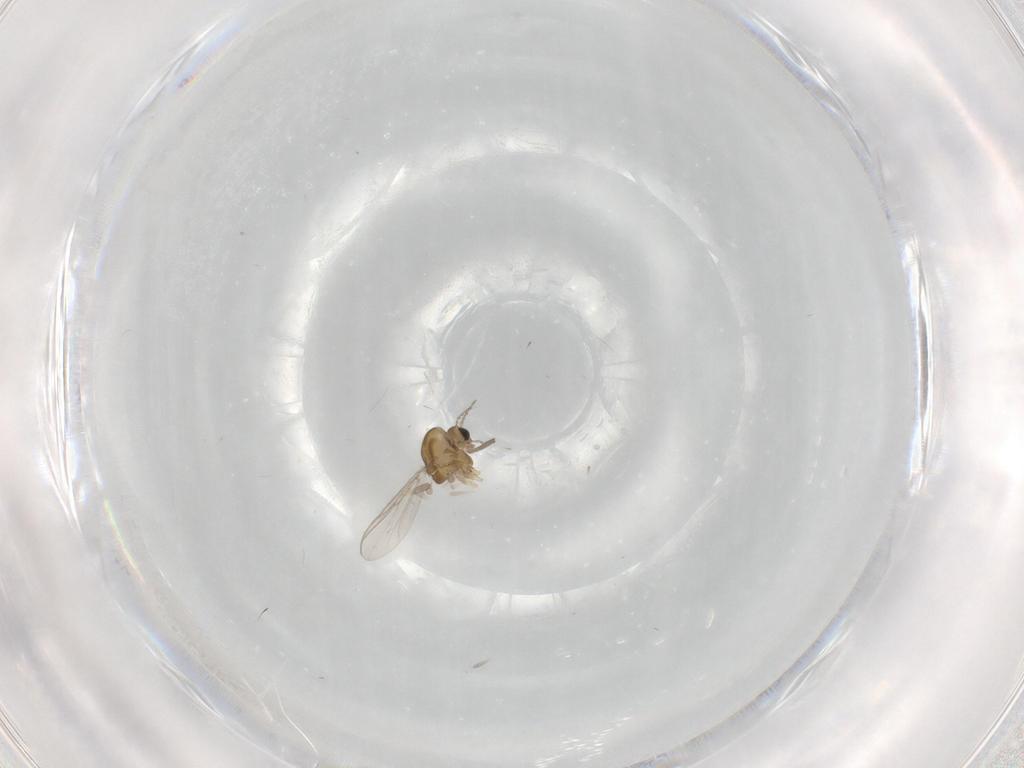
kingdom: Animalia
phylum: Arthropoda
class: Insecta
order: Diptera
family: Chironomidae
